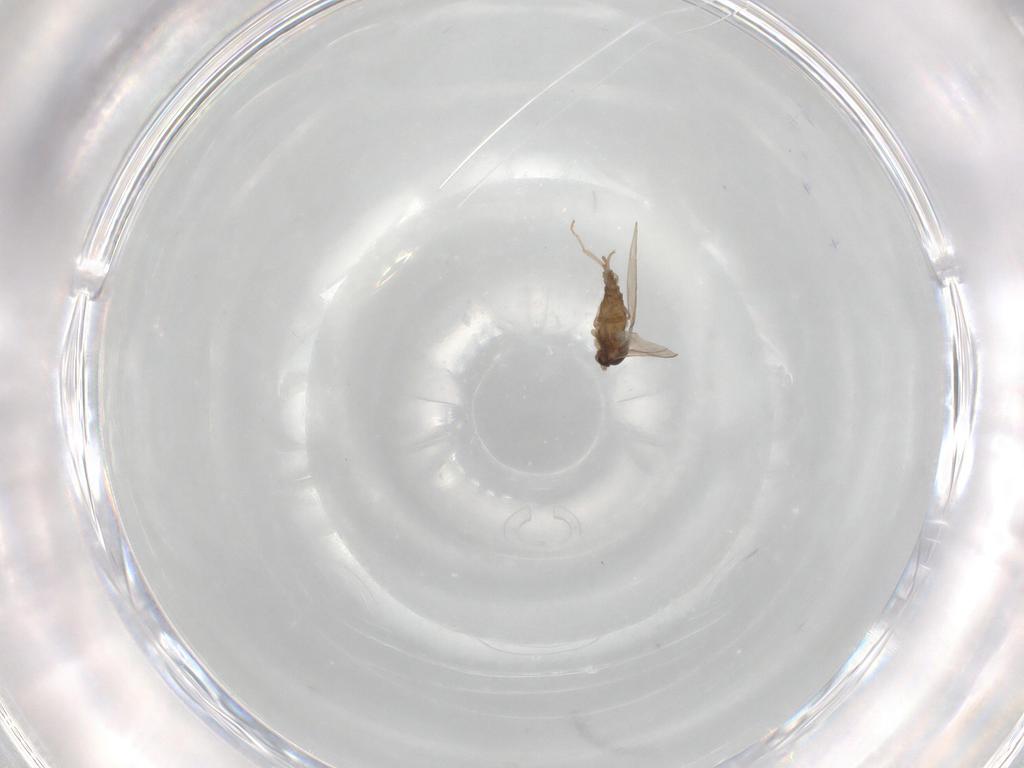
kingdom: Animalia
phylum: Arthropoda
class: Insecta
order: Diptera
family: Cecidomyiidae
